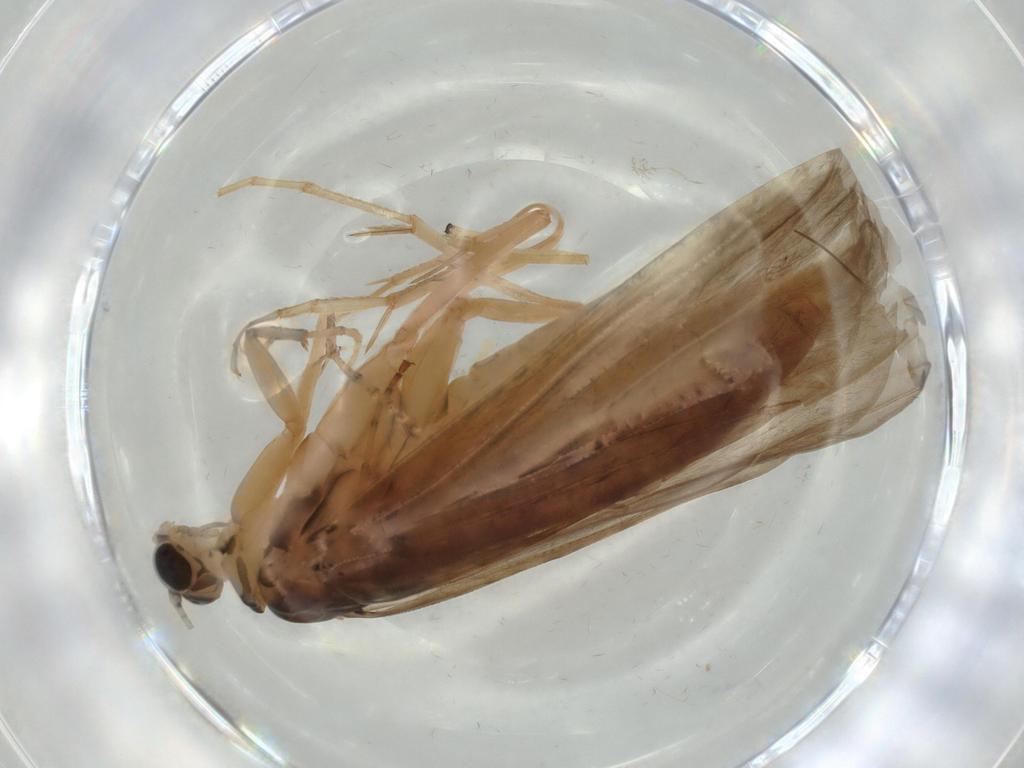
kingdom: Animalia
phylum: Arthropoda
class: Insecta
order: Trichoptera
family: Ecnomidae
